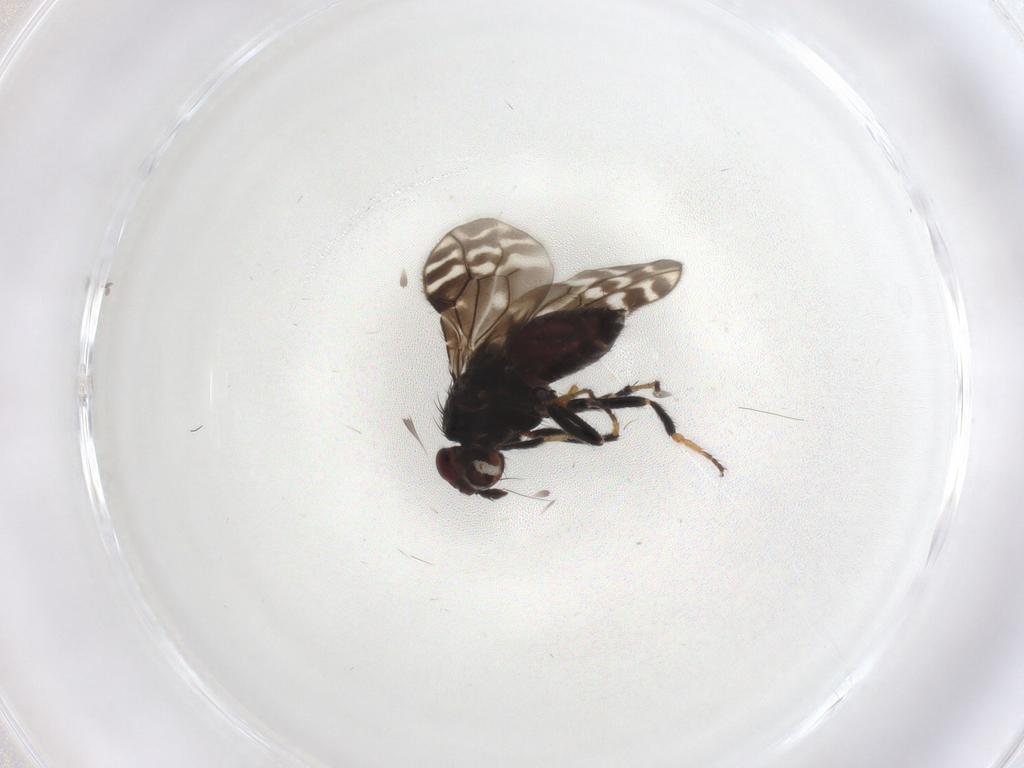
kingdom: Animalia
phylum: Arthropoda
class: Insecta
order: Diptera
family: Sphaeroceridae
